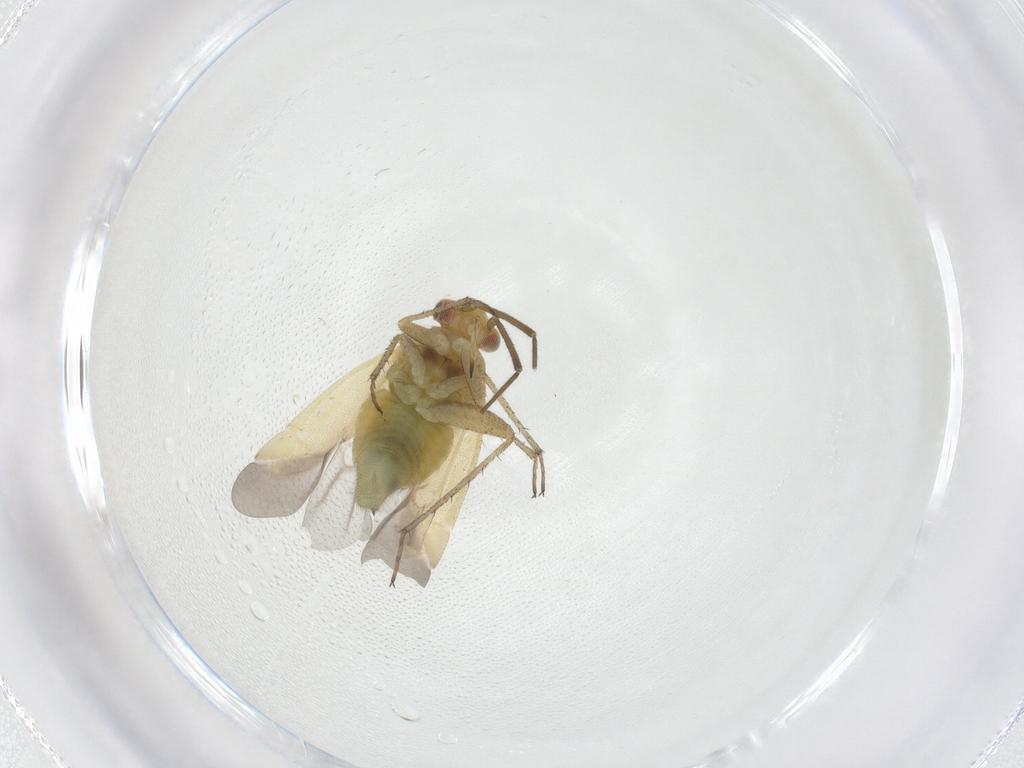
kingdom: Animalia
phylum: Arthropoda
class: Insecta
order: Hemiptera
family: Miridae
